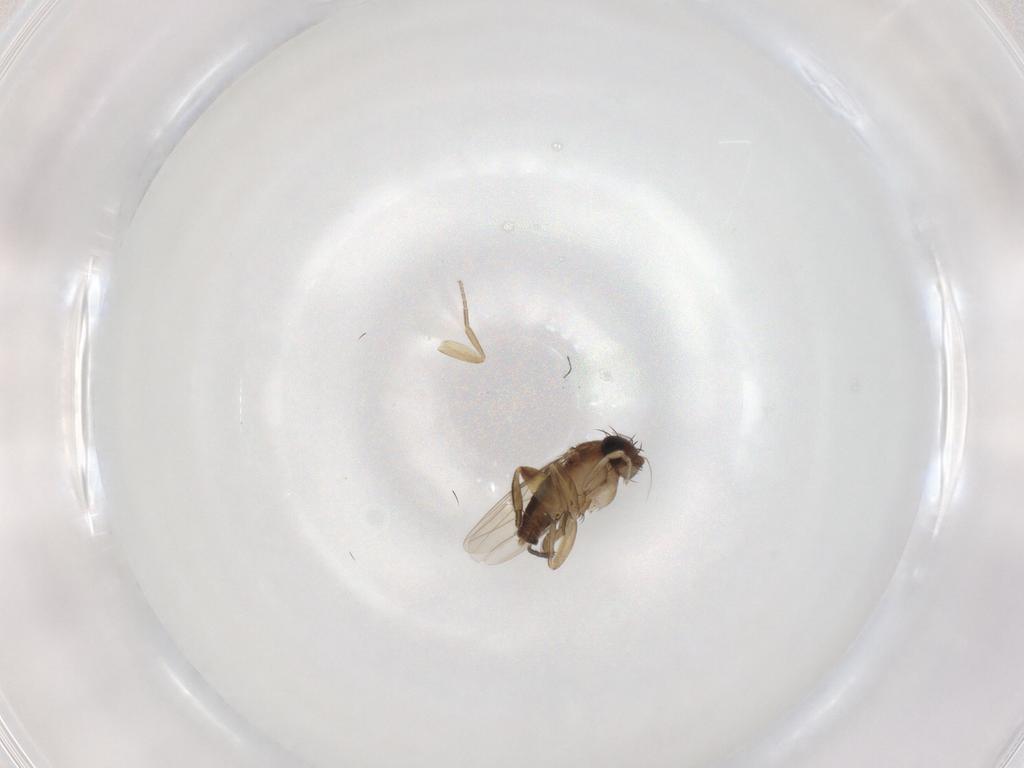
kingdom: Animalia
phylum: Arthropoda
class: Insecta
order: Diptera
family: Phoridae
